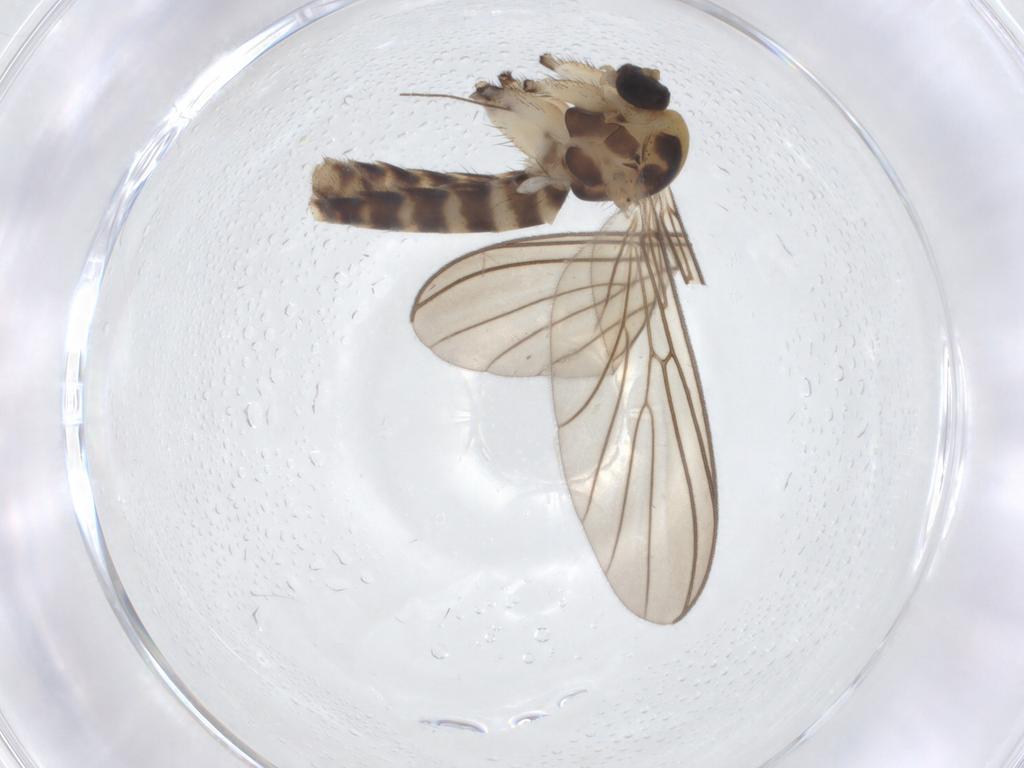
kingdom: Animalia
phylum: Arthropoda
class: Insecta
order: Diptera
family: Mycetophilidae
